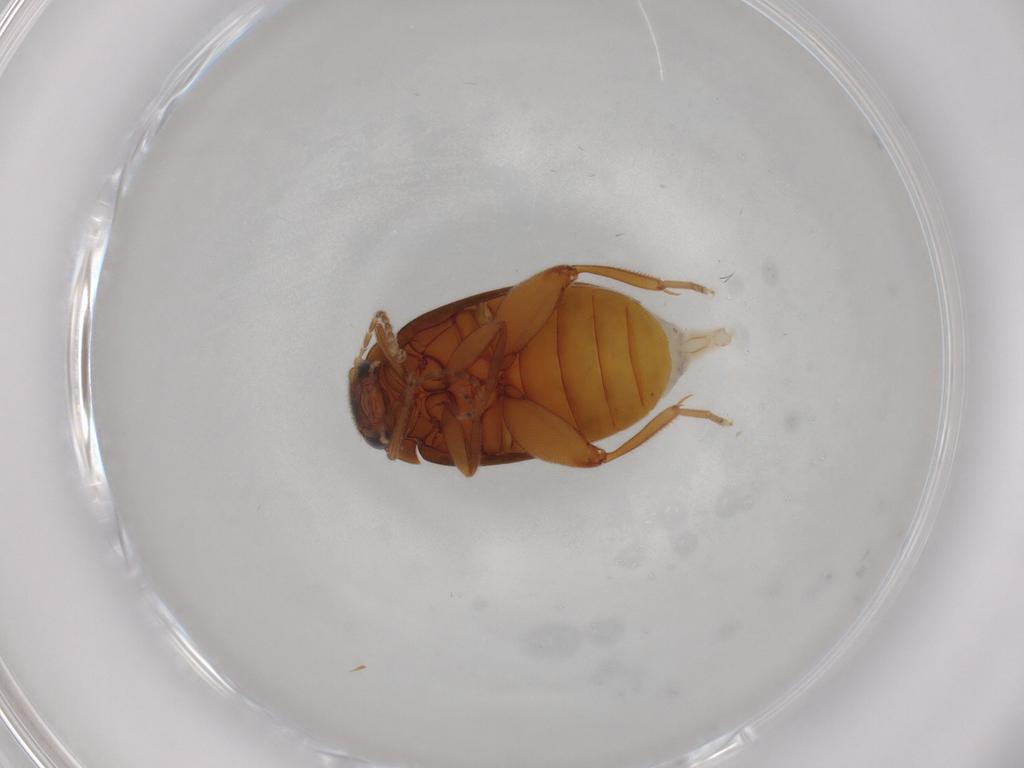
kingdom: Animalia
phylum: Arthropoda
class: Insecta
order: Coleoptera
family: Scirtidae
